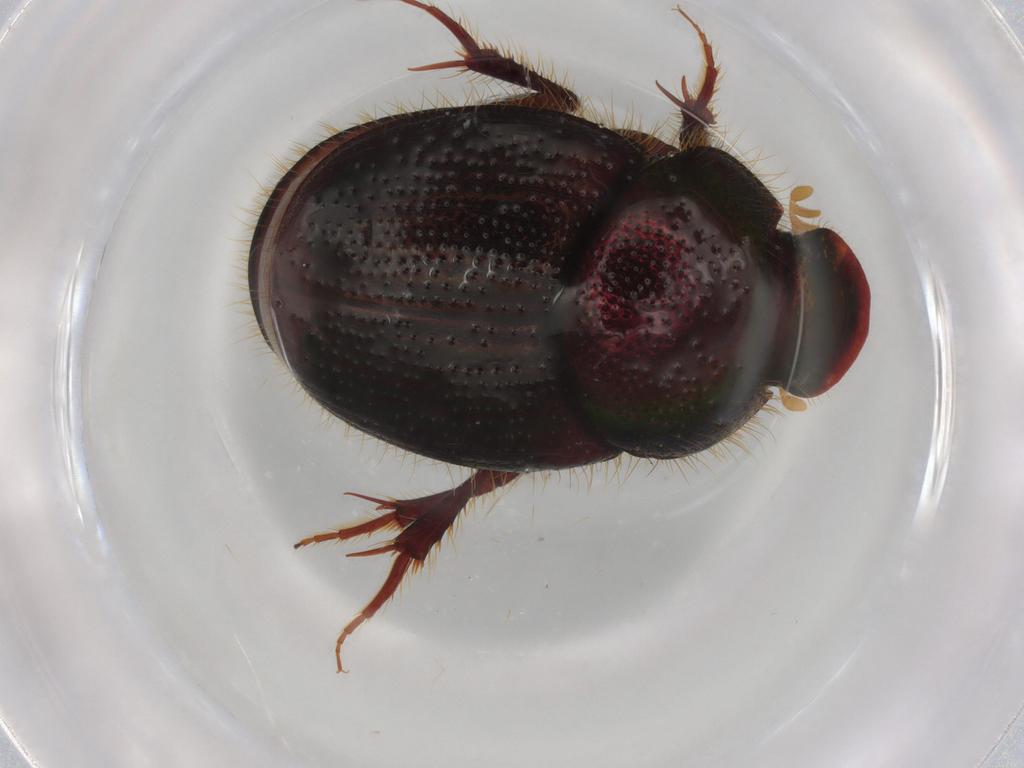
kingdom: Animalia
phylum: Arthropoda
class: Insecta
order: Coleoptera
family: Scarabaeidae
